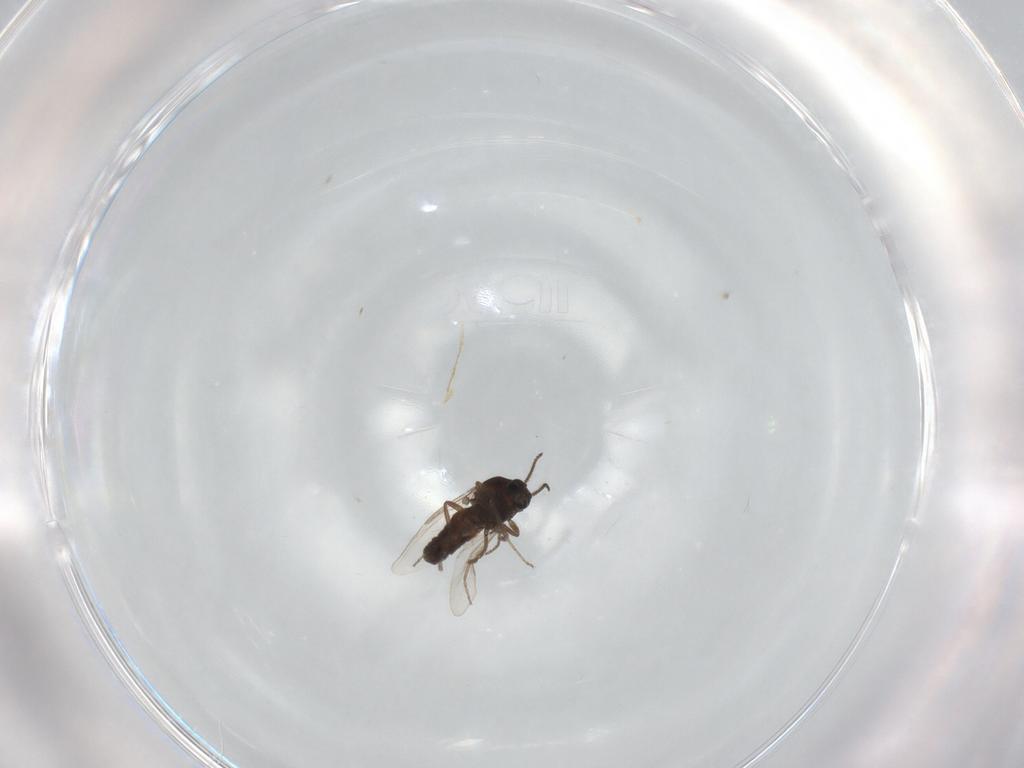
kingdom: Animalia
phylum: Arthropoda
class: Insecta
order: Diptera
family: Ceratopogonidae
